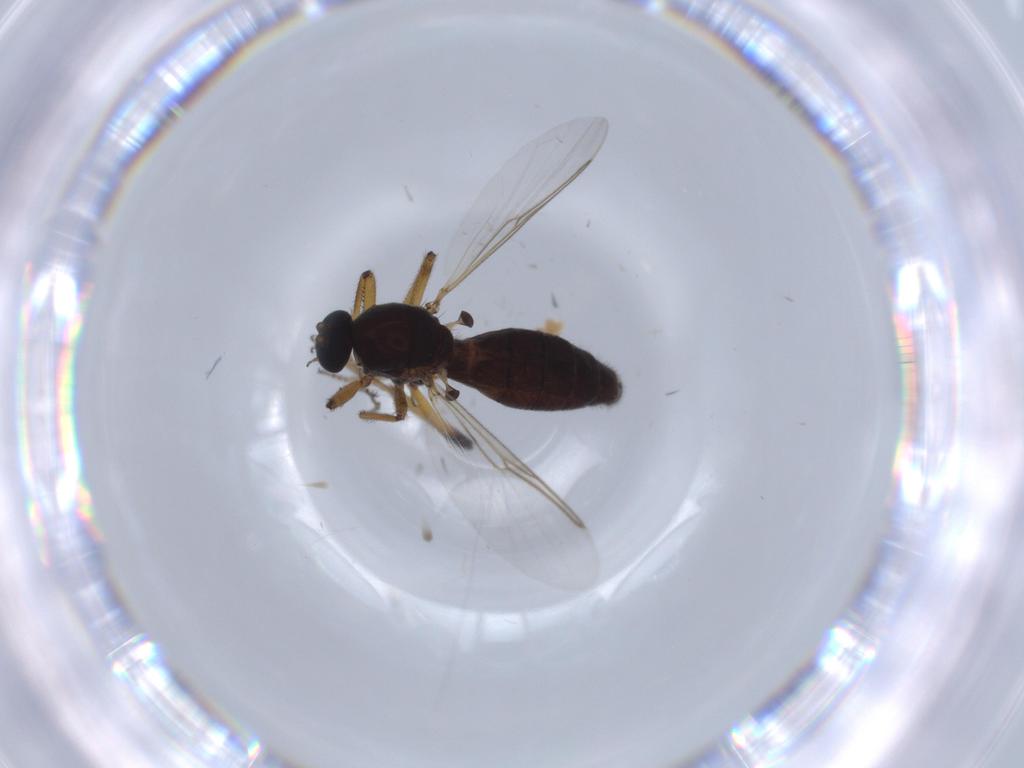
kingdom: Animalia
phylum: Arthropoda
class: Insecta
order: Diptera
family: Ceratopogonidae
